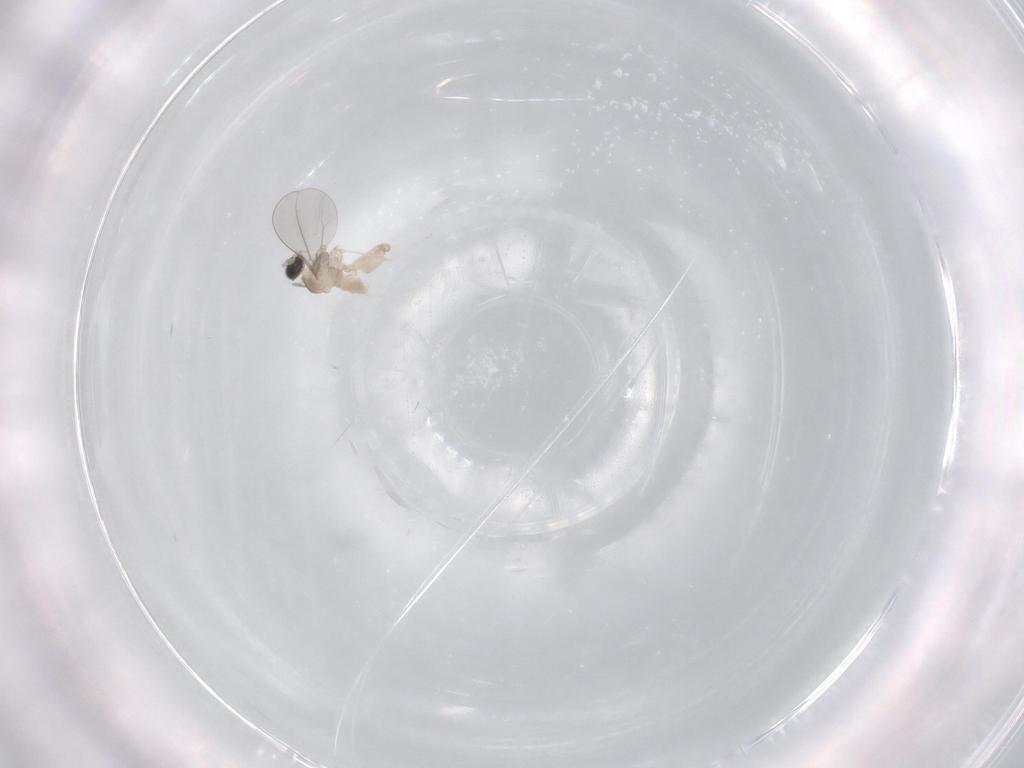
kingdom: Animalia
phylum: Arthropoda
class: Insecta
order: Diptera
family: Cecidomyiidae
